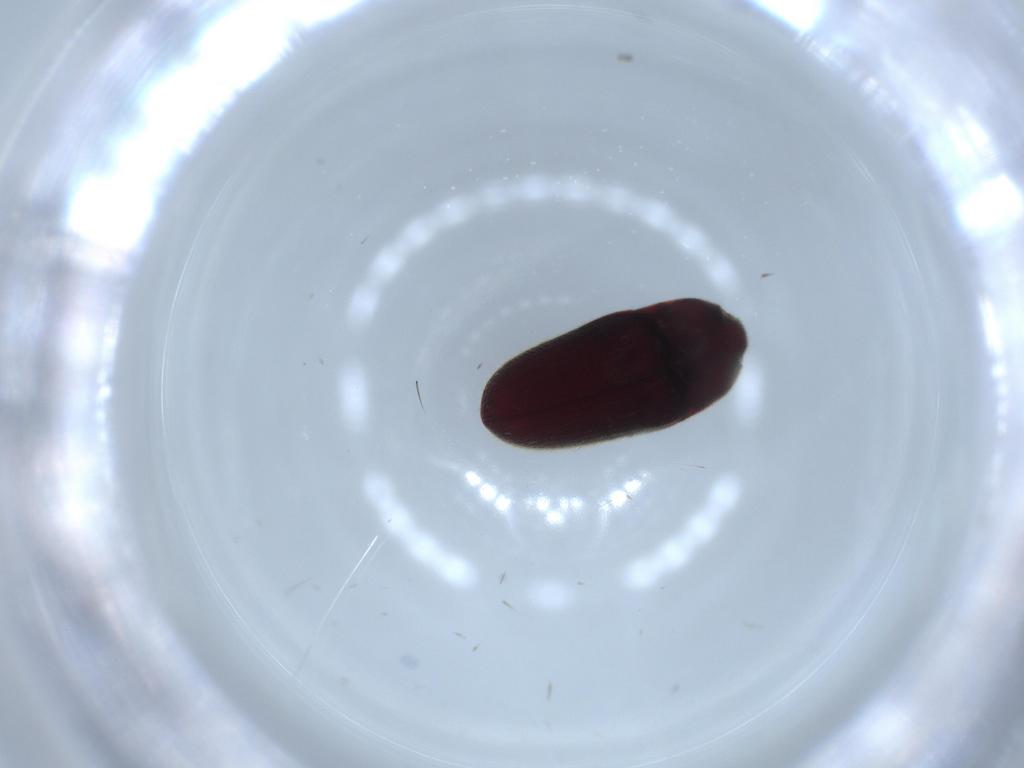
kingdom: Animalia
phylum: Arthropoda
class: Insecta
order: Coleoptera
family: Throscidae
